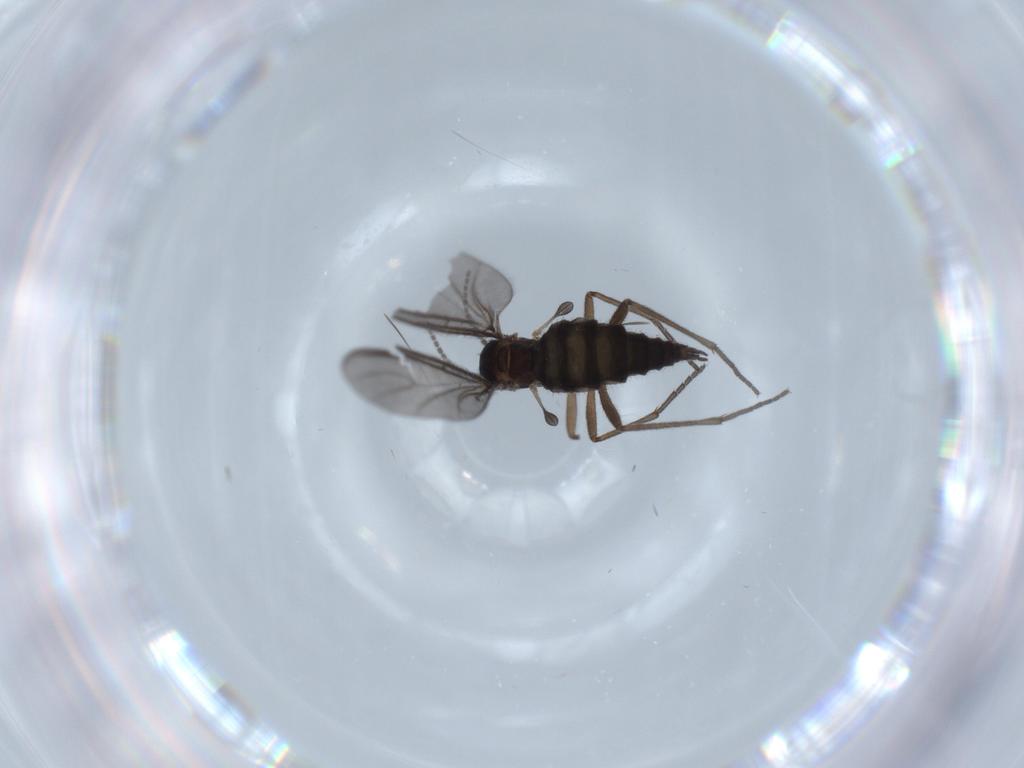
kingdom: Animalia
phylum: Arthropoda
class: Insecta
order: Diptera
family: Sciaridae
